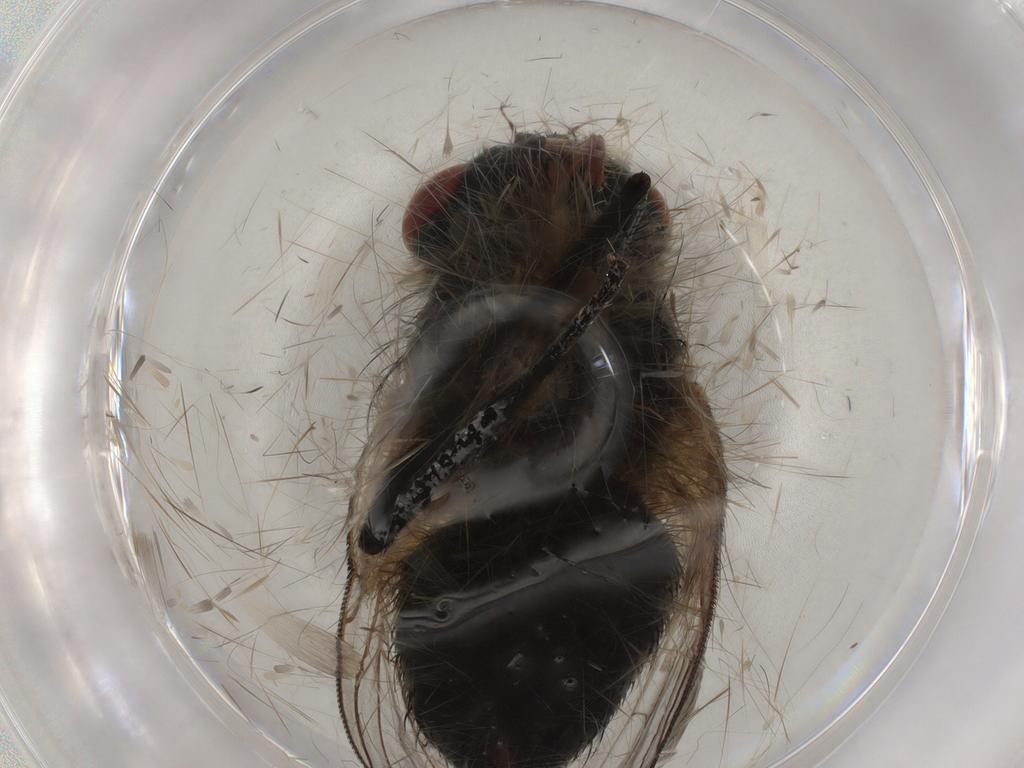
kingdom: Animalia
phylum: Arthropoda
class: Insecta
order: Diptera
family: Sarcophagidae
